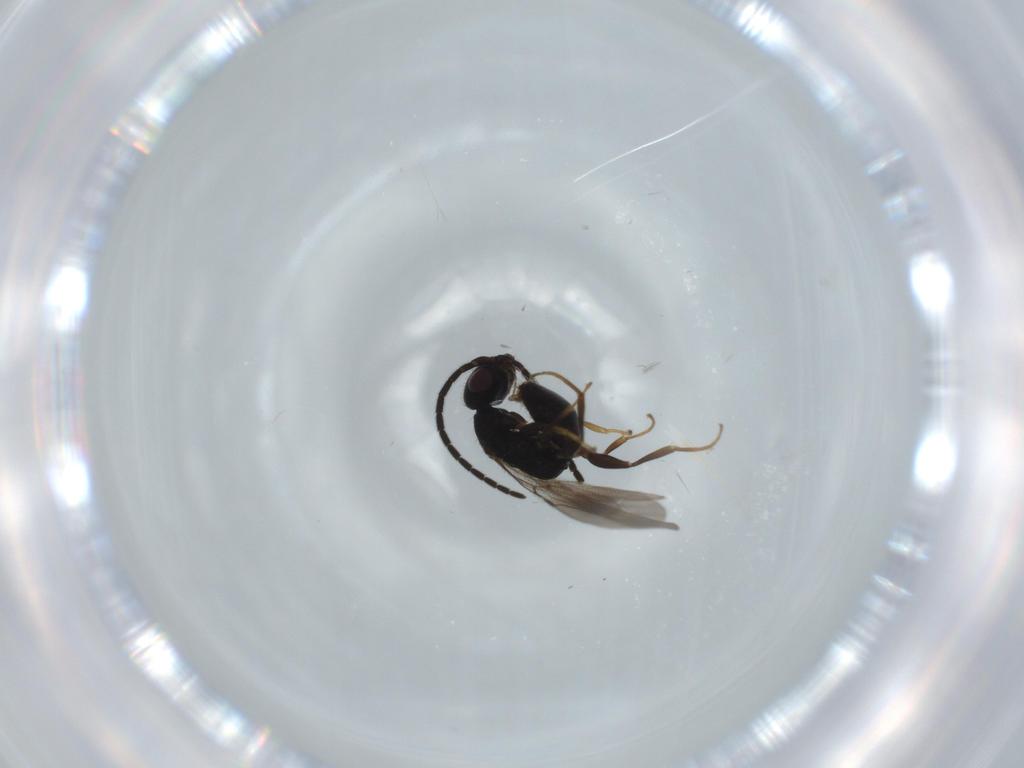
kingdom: Animalia
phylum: Arthropoda
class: Insecta
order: Hymenoptera
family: Bethylidae
